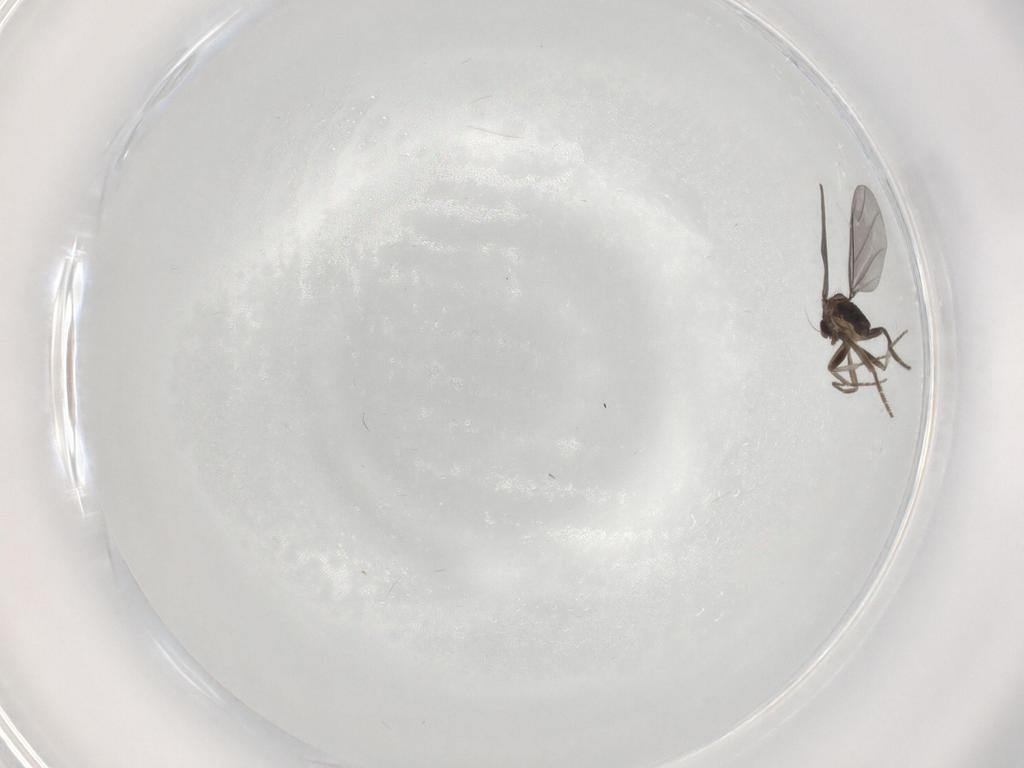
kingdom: Animalia
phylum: Arthropoda
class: Insecta
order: Diptera
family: Phoridae
